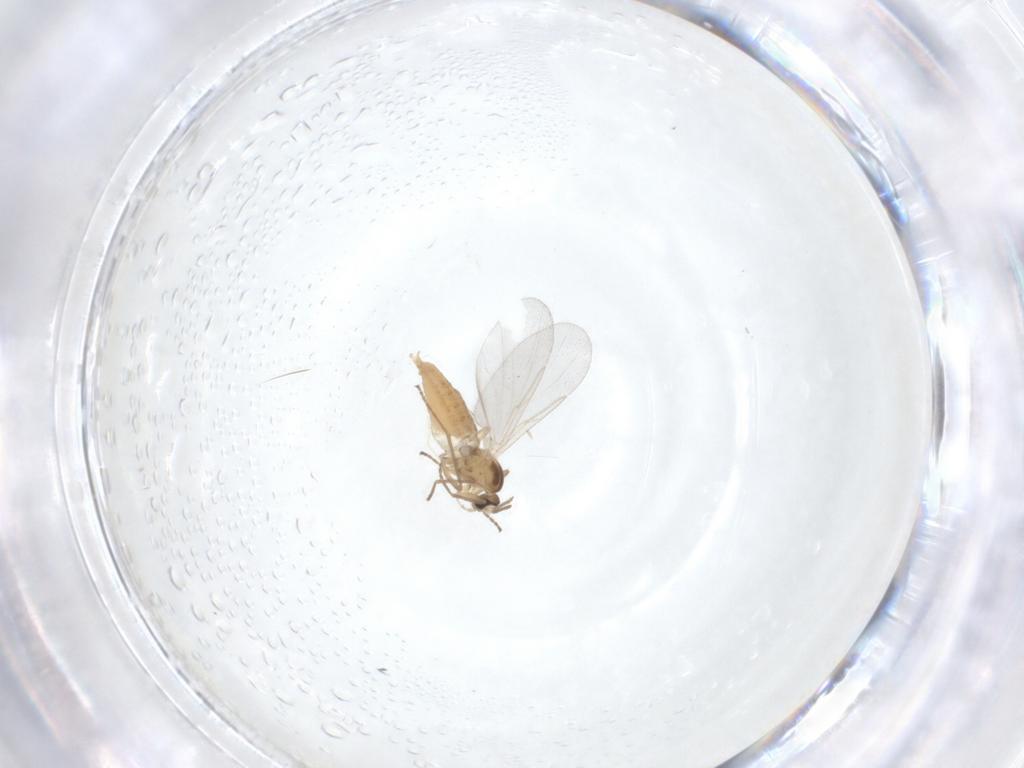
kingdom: Animalia
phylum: Arthropoda
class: Insecta
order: Diptera
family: Cecidomyiidae
